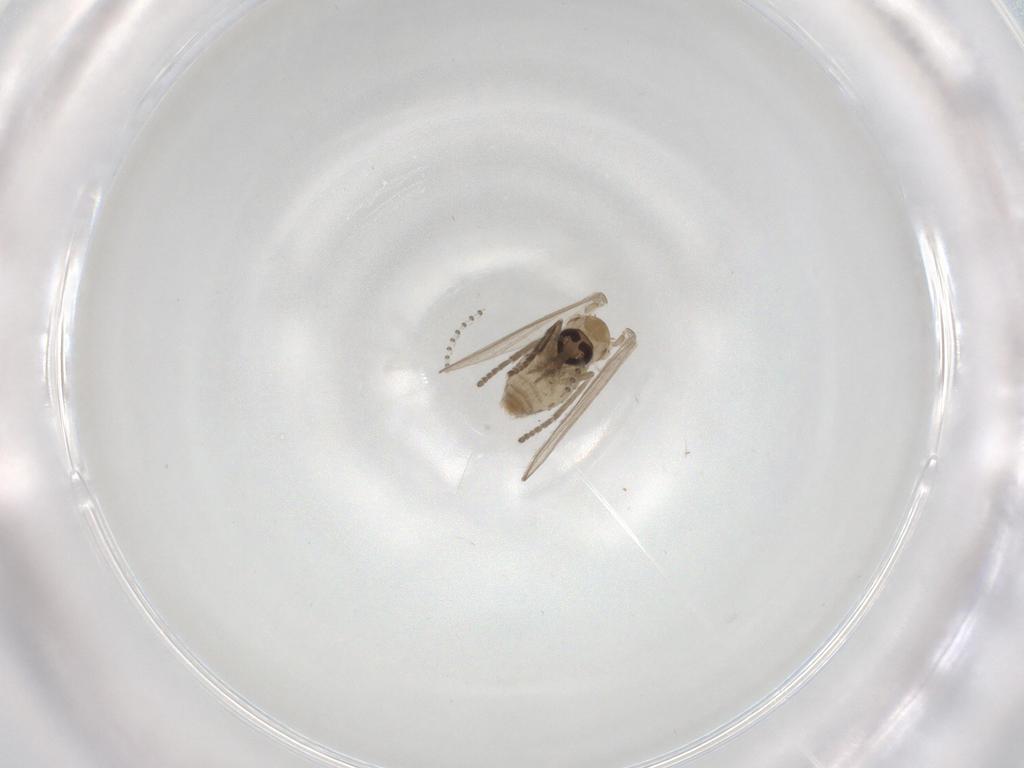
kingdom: Animalia
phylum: Arthropoda
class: Insecta
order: Diptera
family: Psychodidae
